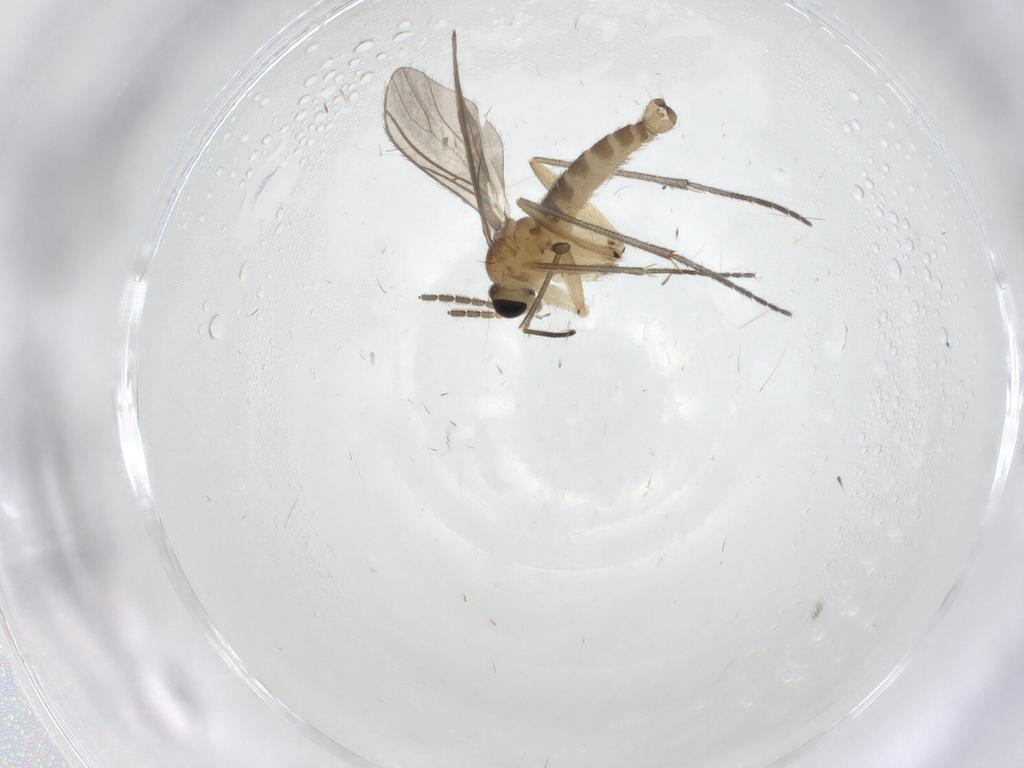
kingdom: Animalia
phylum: Arthropoda
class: Insecta
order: Diptera
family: Sciaridae
